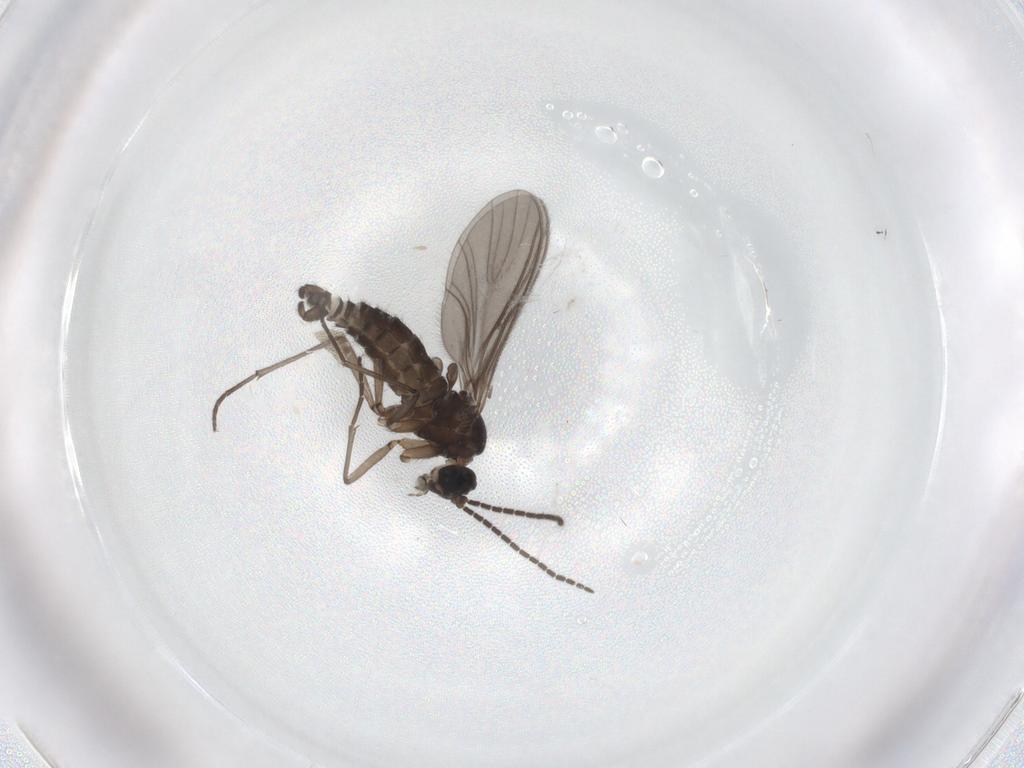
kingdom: Animalia
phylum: Arthropoda
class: Insecta
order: Diptera
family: Sciaridae
